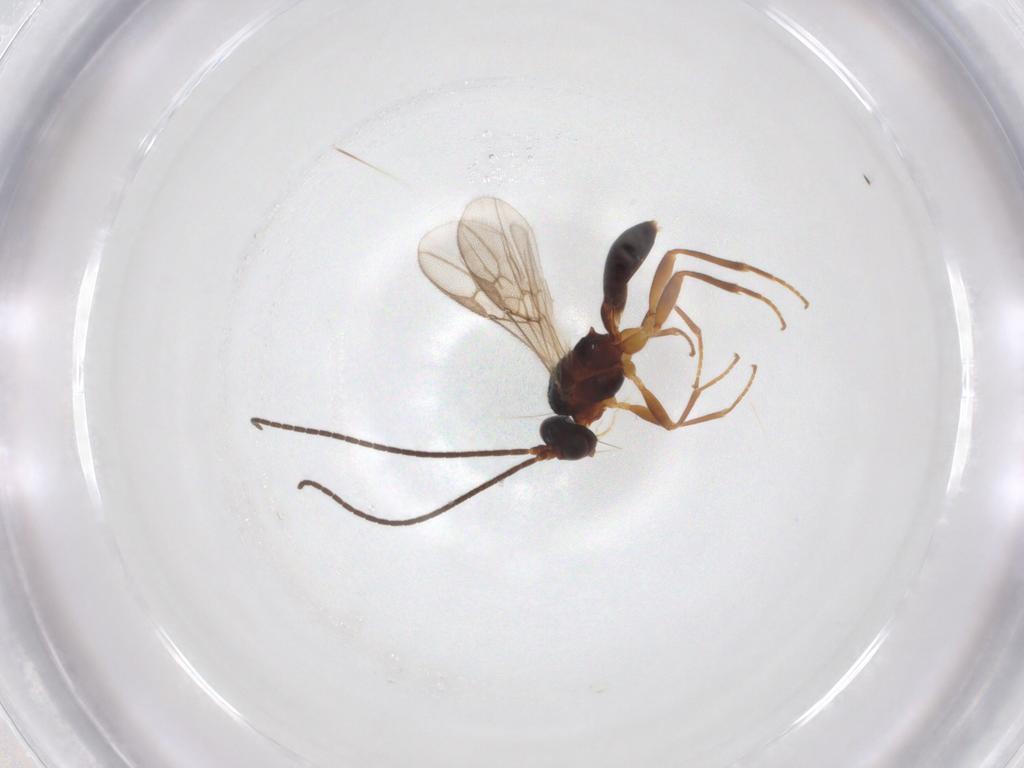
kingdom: Animalia
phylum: Arthropoda
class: Insecta
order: Hymenoptera
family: Braconidae
